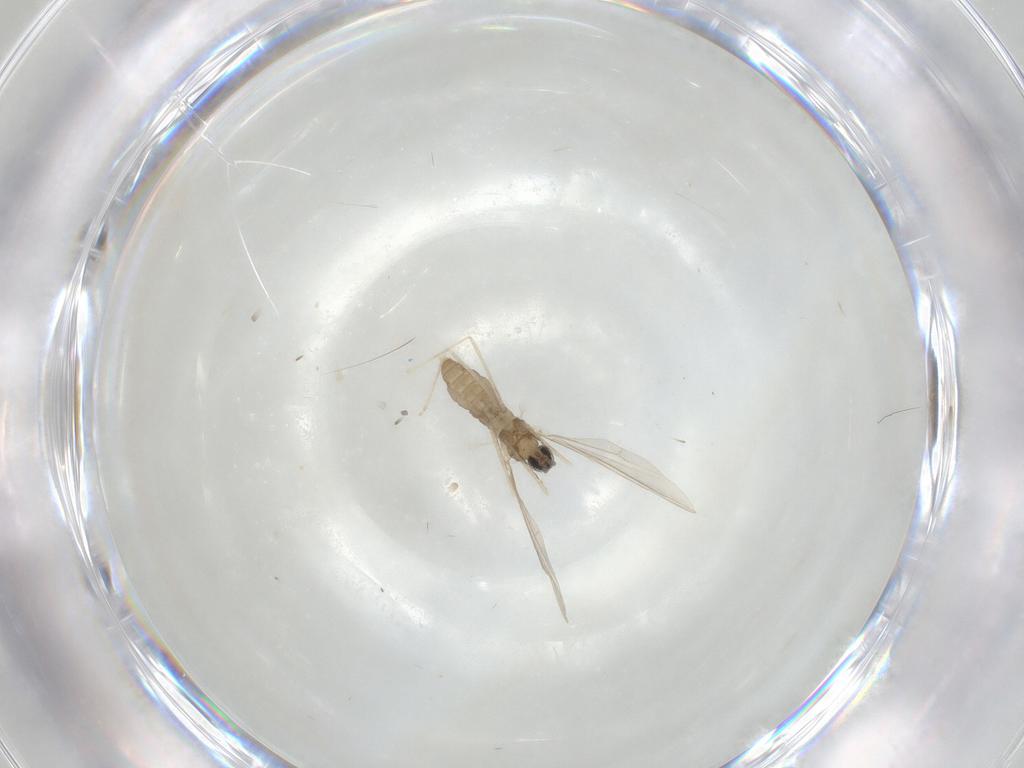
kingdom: Animalia
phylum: Arthropoda
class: Insecta
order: Diptera
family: Cecidomyiidae
